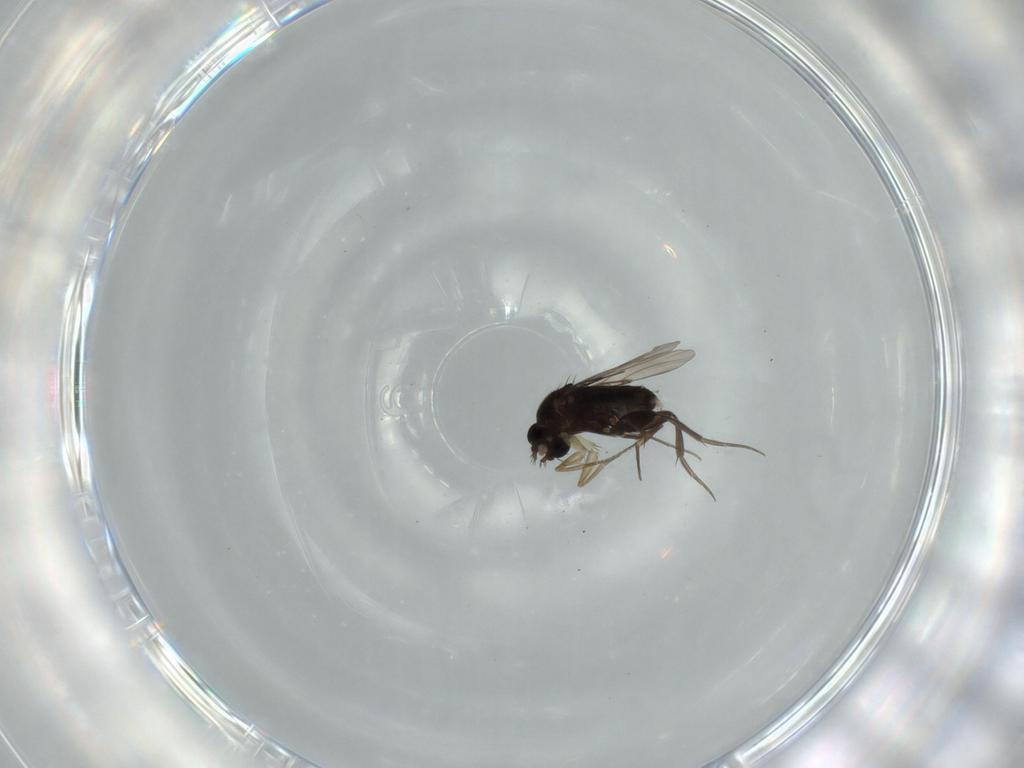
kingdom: Animalia
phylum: Arthropoda
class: Insecta
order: Diptera
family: Phoridae
